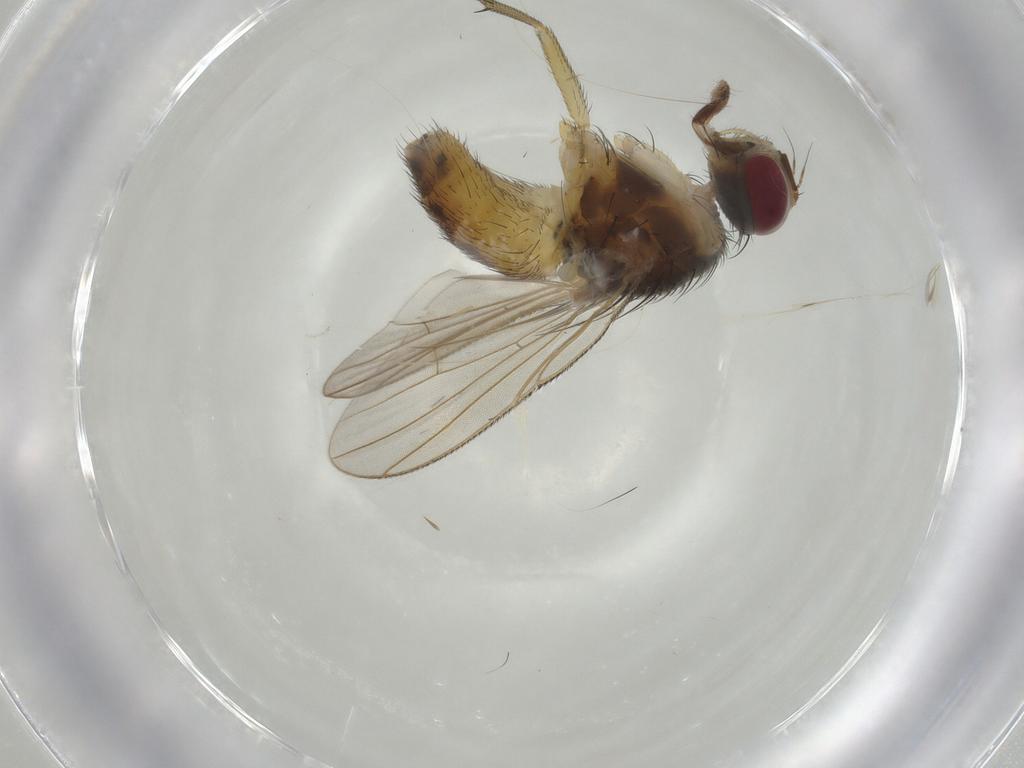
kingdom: Animalia
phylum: Arthropoda
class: Insecta
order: Diptera
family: Muscidae
